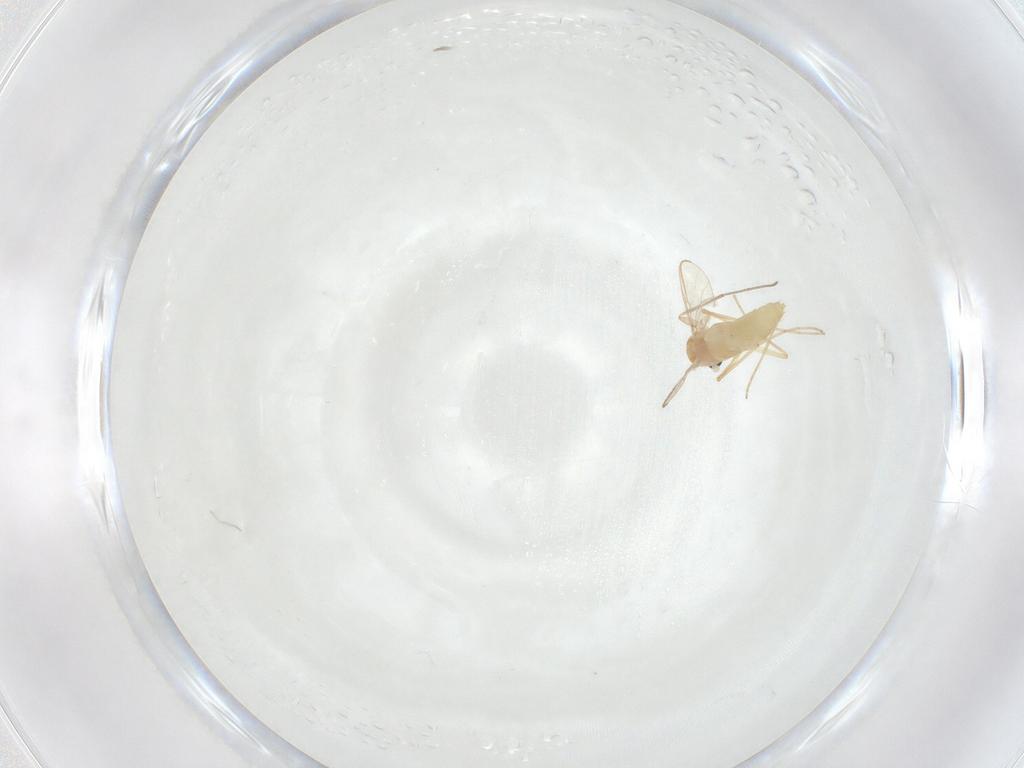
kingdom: Animalia
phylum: Arthropoda
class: Insecta
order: Diptera
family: Chironomidae
